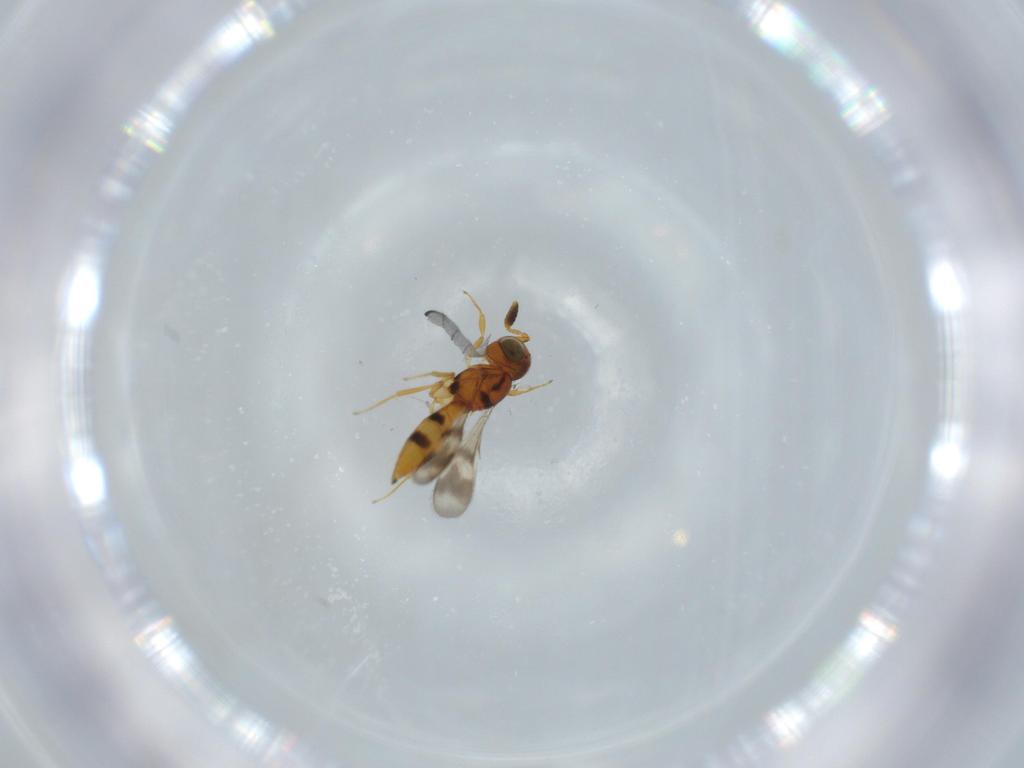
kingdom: Animalia
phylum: Arthropoda
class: Insecta
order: Hymenoptera
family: Scelionidae
